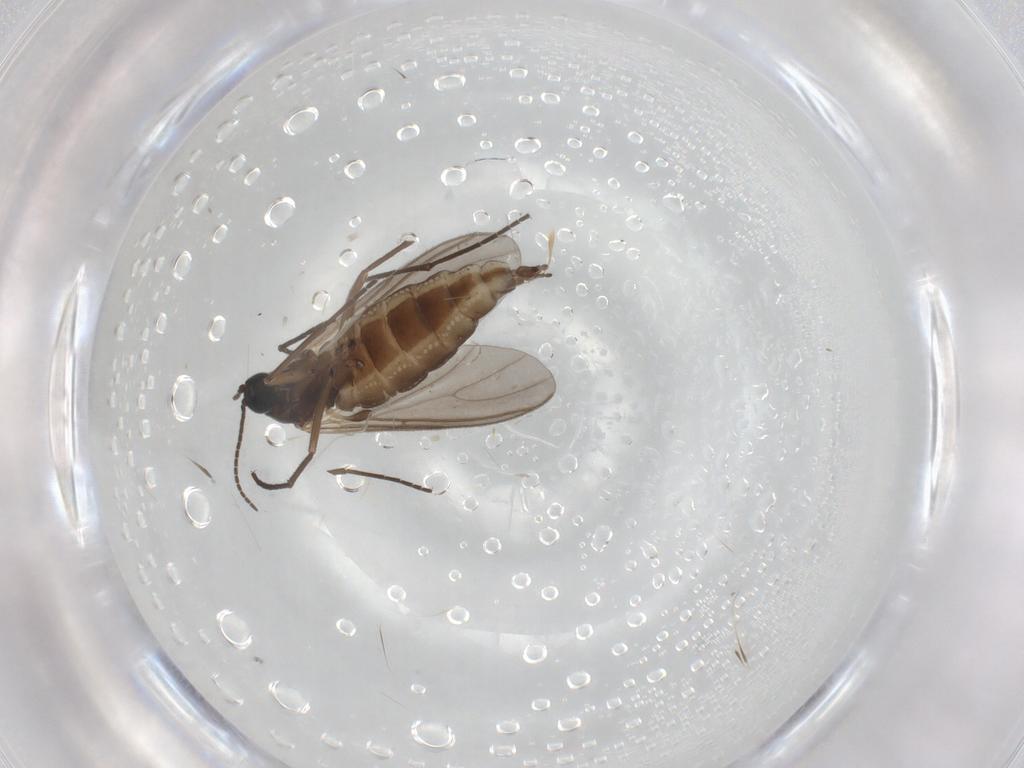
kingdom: Animalia
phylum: Arthropoda
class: Insecta
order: Diptera
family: Sciaridae
